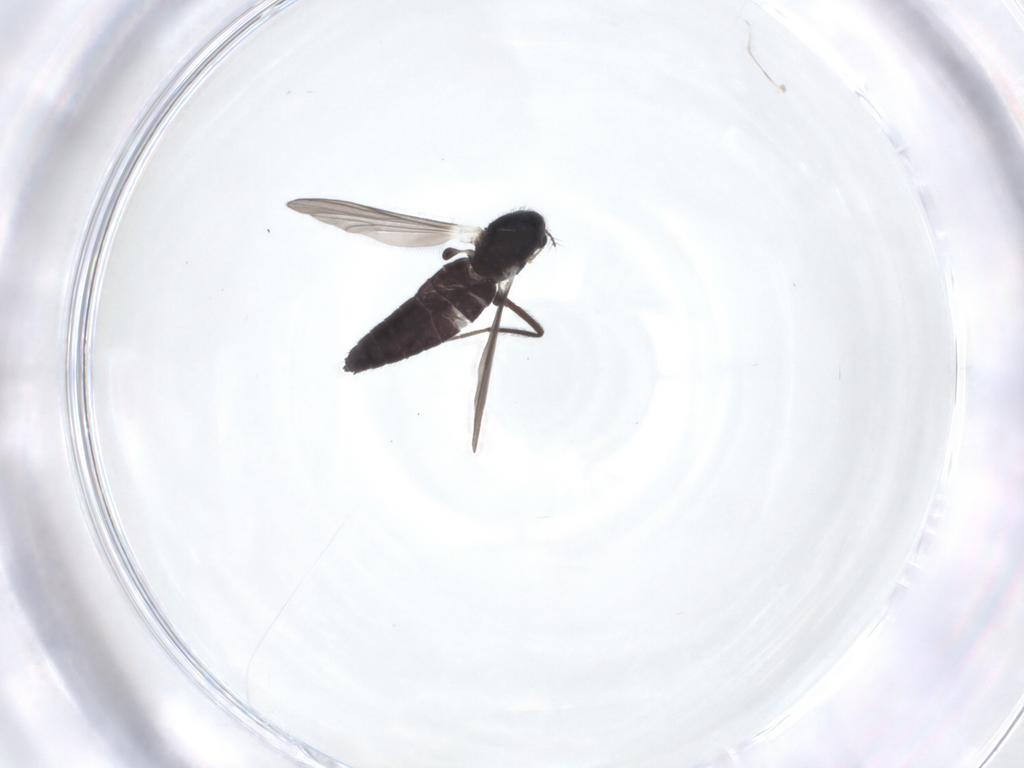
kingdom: Animalia
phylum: Arthropoda
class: Insecta
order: Diptera
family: Chironomidae
